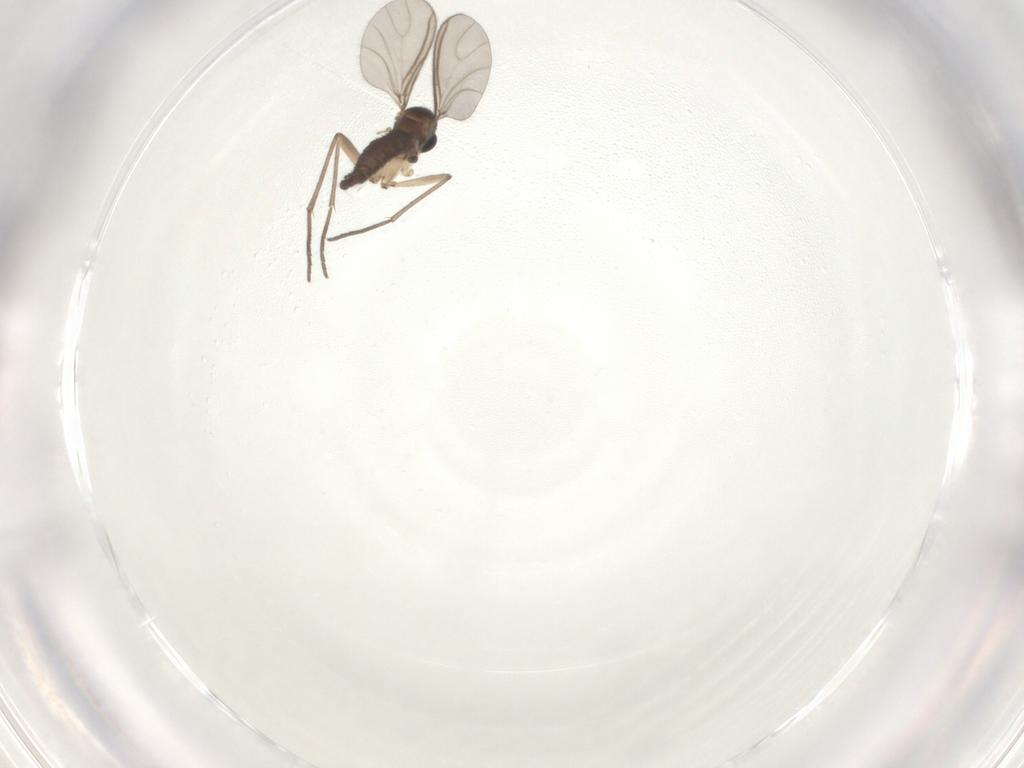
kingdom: Animalia
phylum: Arthropoda
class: Insecta
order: Diptera
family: Sciaridae
